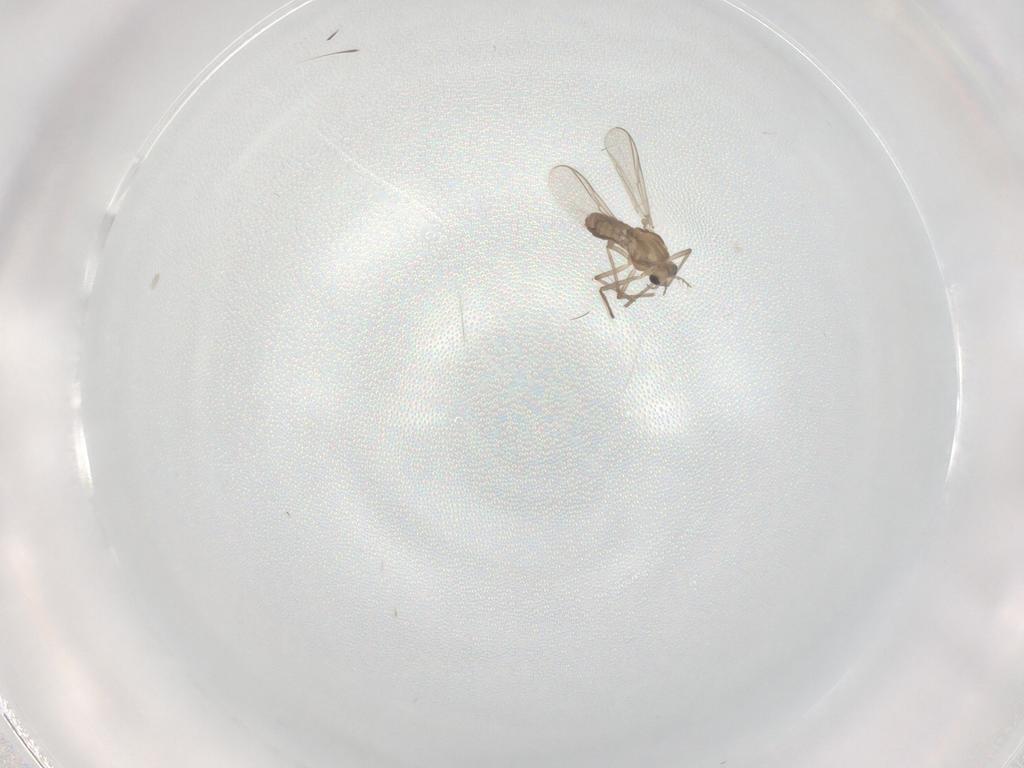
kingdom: Animalia
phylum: Arthropoda
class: Insecta
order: Diptera
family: Chironomidae
